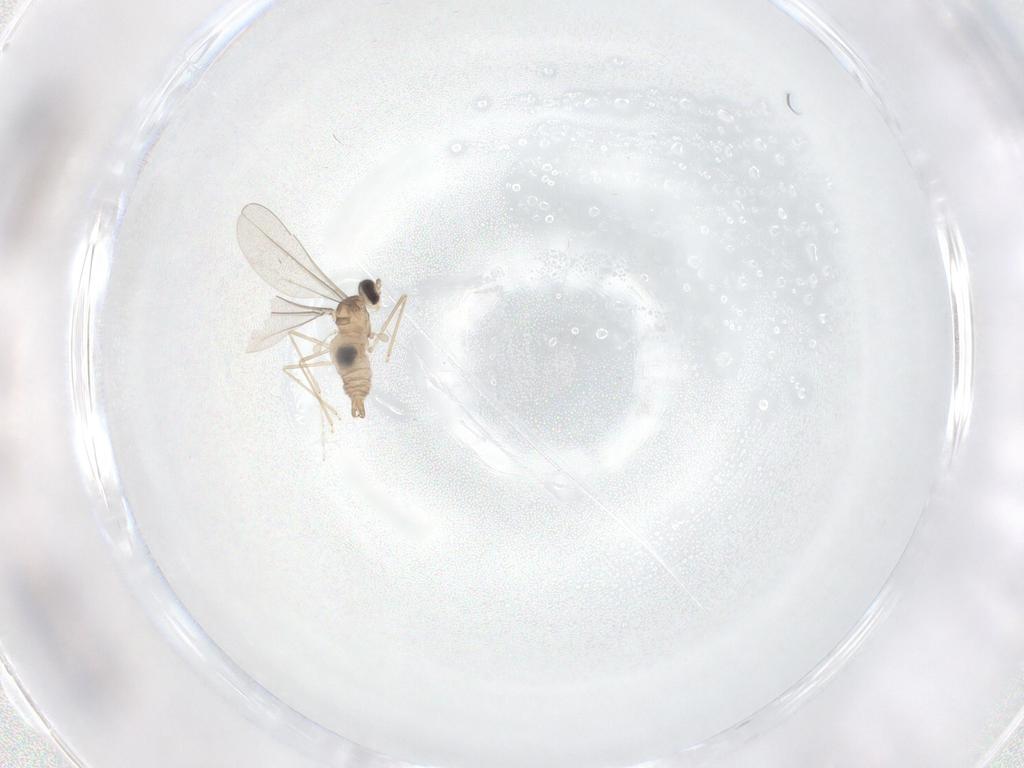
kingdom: Animalia
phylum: Arthropoda
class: Insecta
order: Diptera
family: Cecidomyiidae
